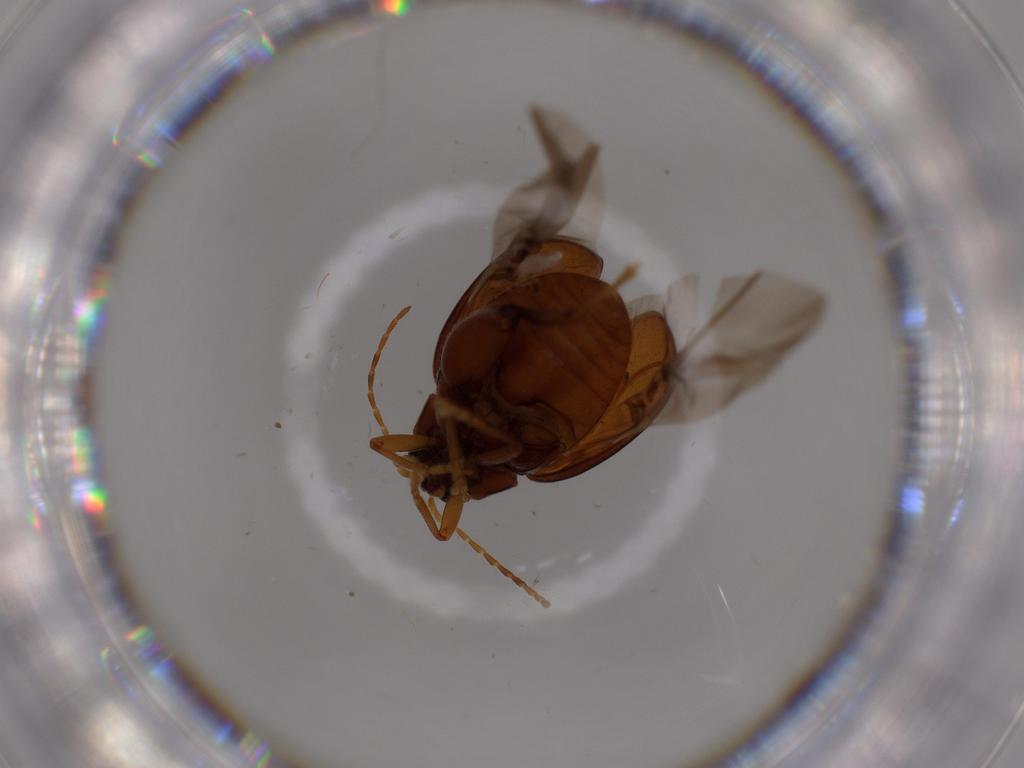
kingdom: Animalia
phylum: Arthropoda
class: Insecta
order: Coleoptera
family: Chrysomelidae
